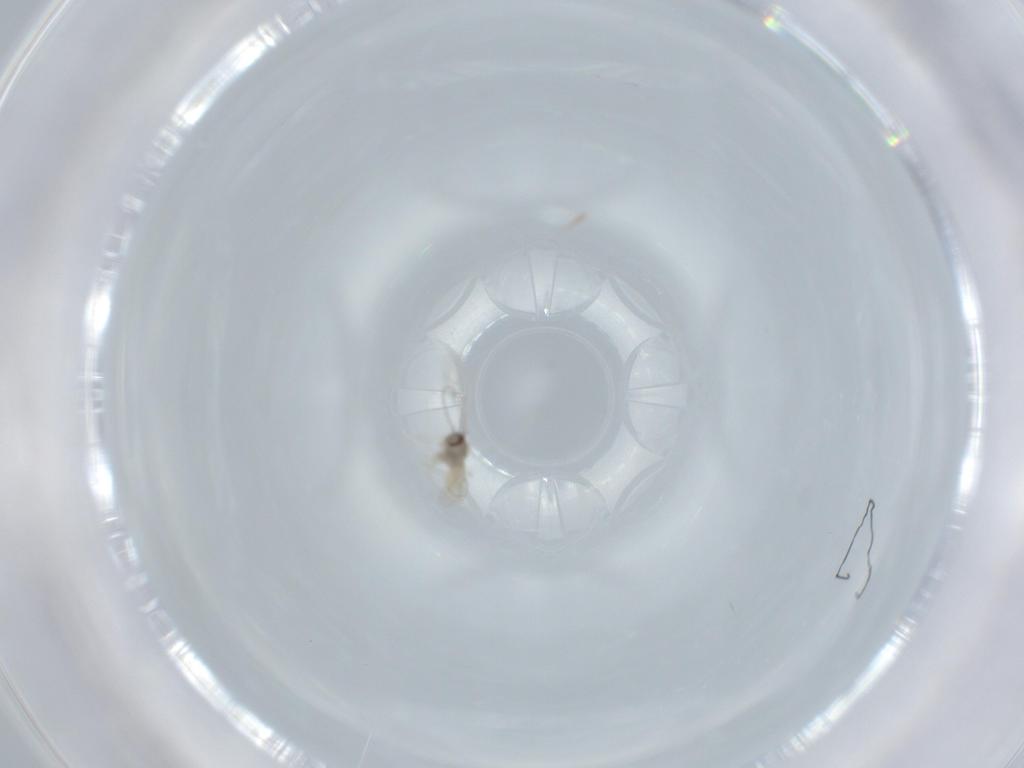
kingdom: Animalia
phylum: Arthropoda
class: Insecta
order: Diptera
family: Cecidomyiidae
